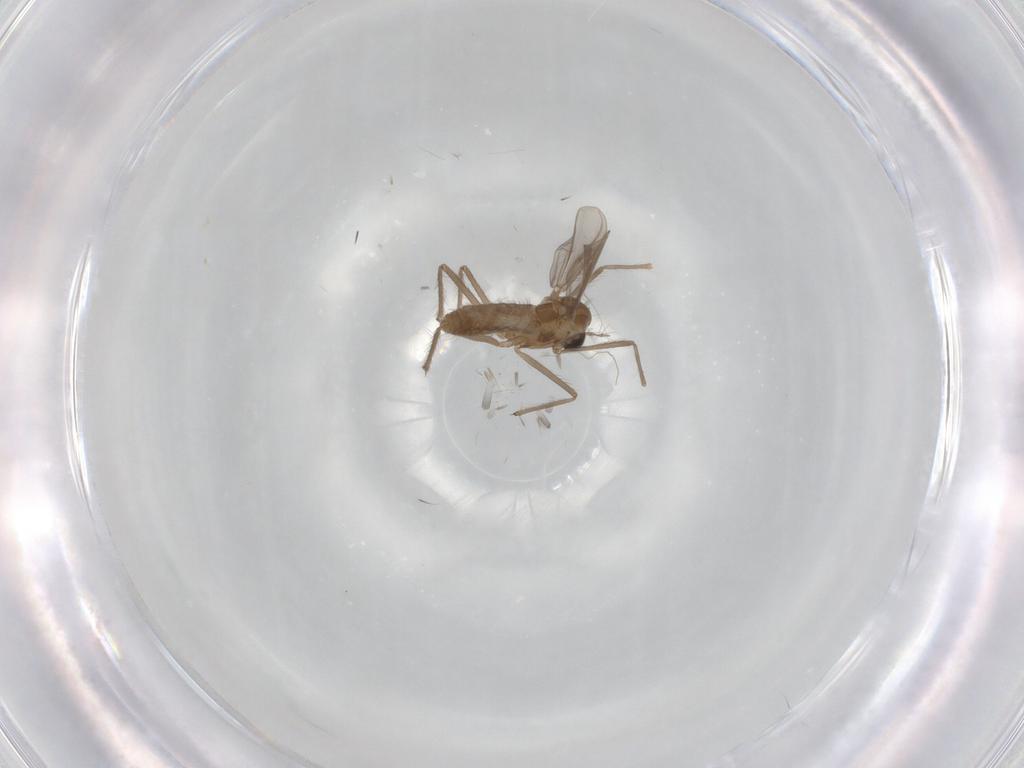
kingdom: Animalia
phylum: Arthropoda
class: Insecta
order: Diptera
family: Chironomidae
